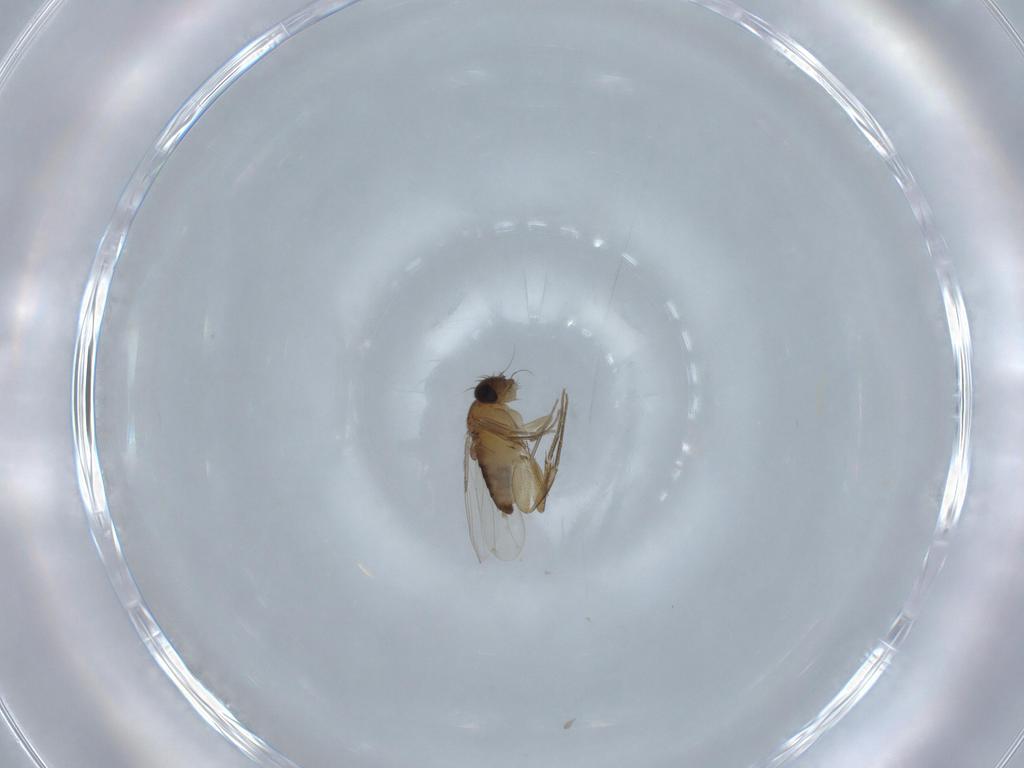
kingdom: Animalia
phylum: Arthropoda
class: Insecta
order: Diptera
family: Phoridae
